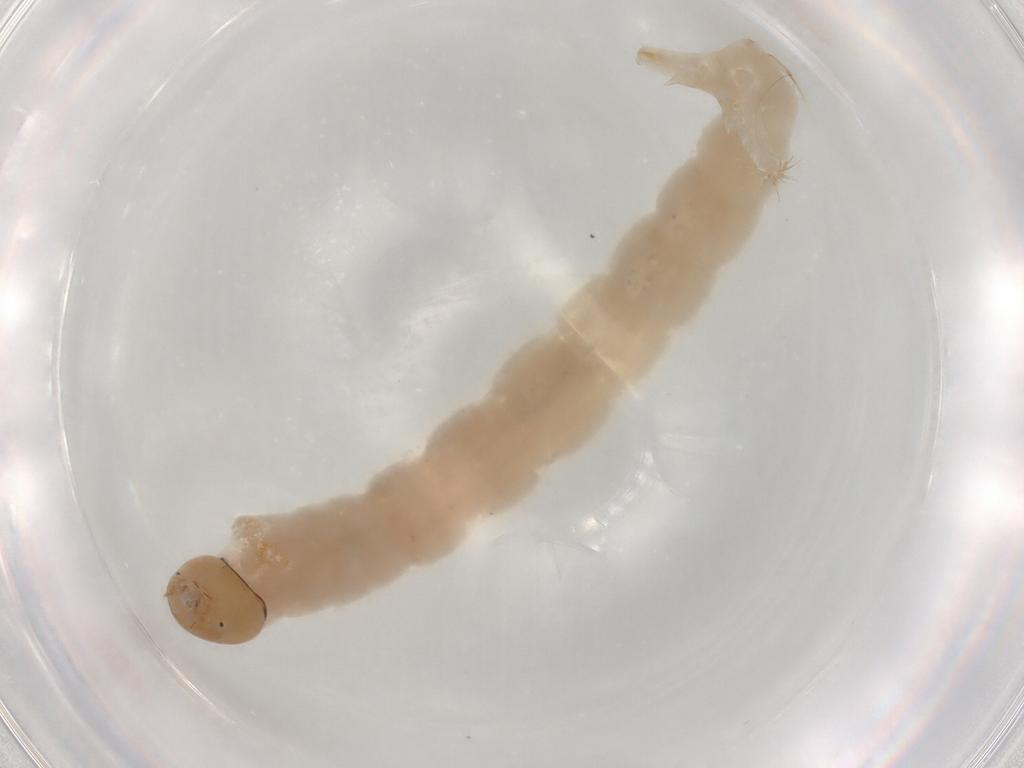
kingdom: Animalia
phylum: Arthropoda
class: Insecta
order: Diptera
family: Chironomidae
